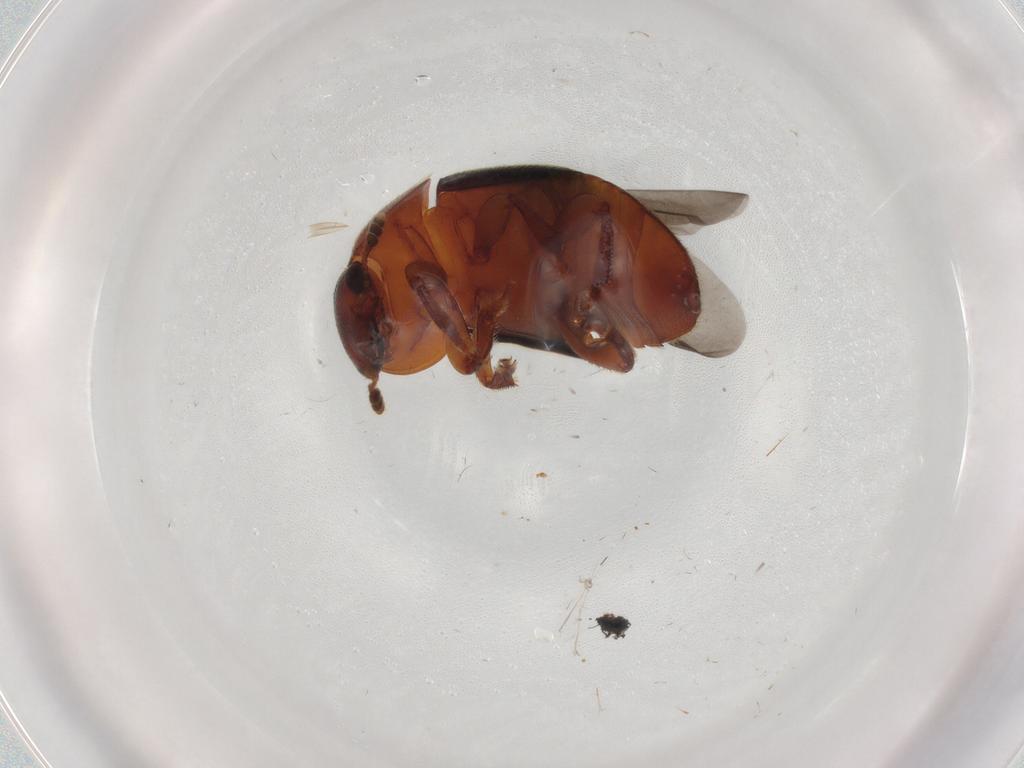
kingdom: Animalia
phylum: Arthropoda
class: Insecta
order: Coleoptera
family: Nitidulidae
